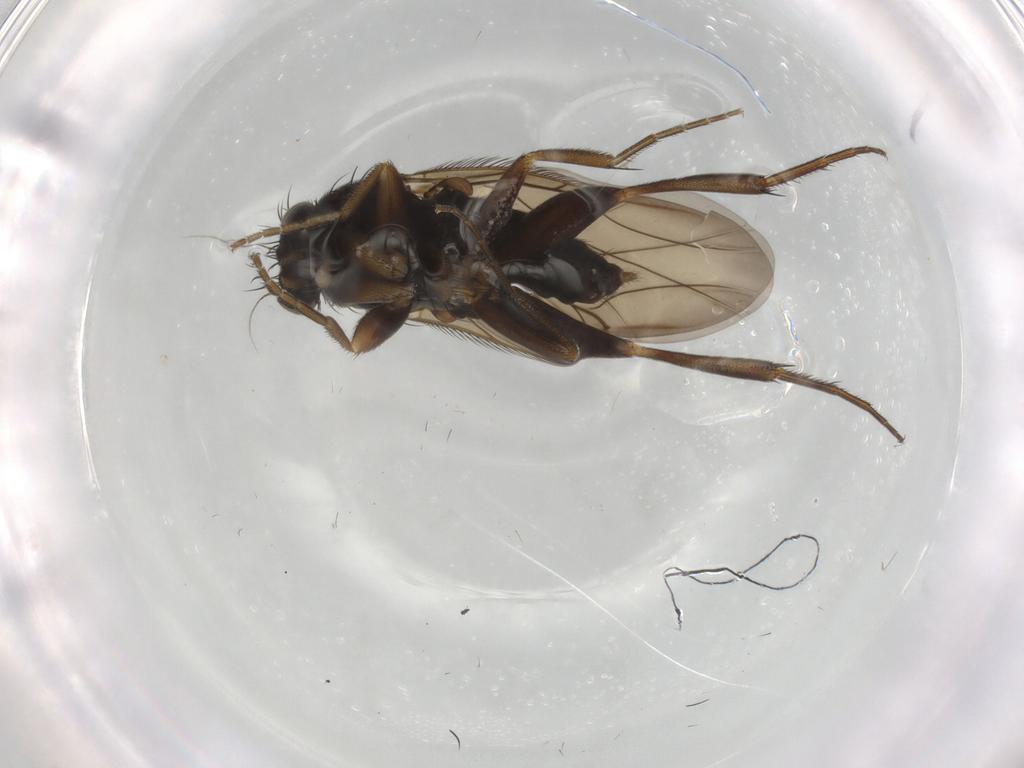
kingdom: Animalia
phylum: Arthropoda
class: Insecta
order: Diptera
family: Phoridae
